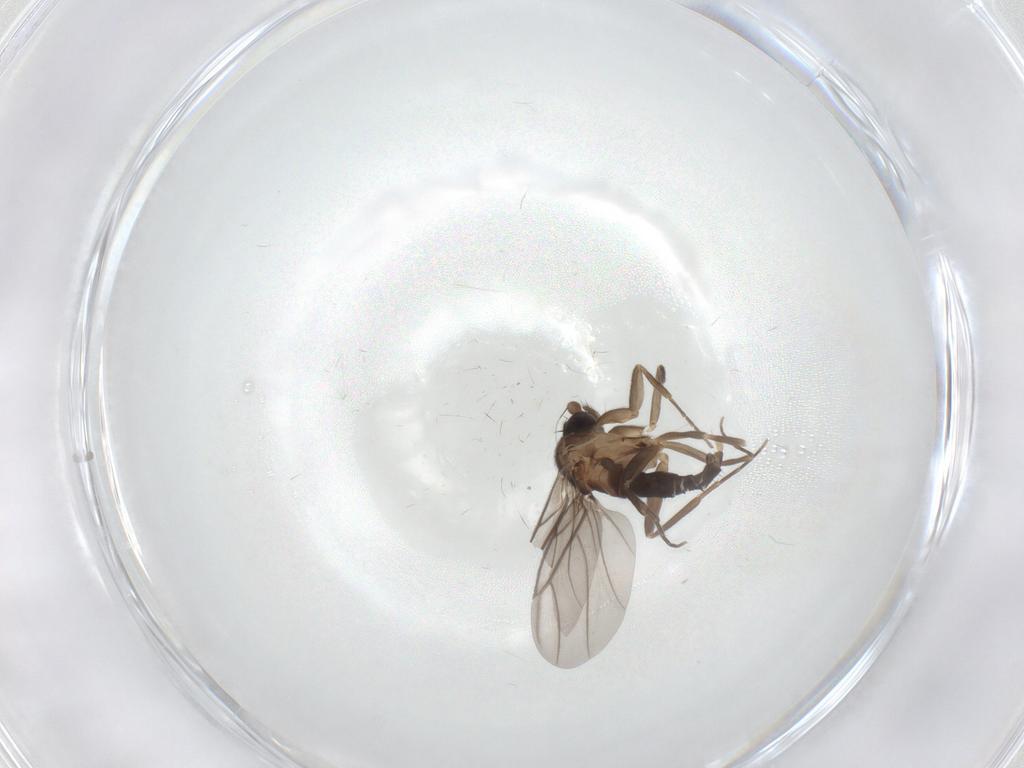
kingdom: Animalia
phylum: Arthropoda
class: Insecta
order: Diptera
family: Phoridae
